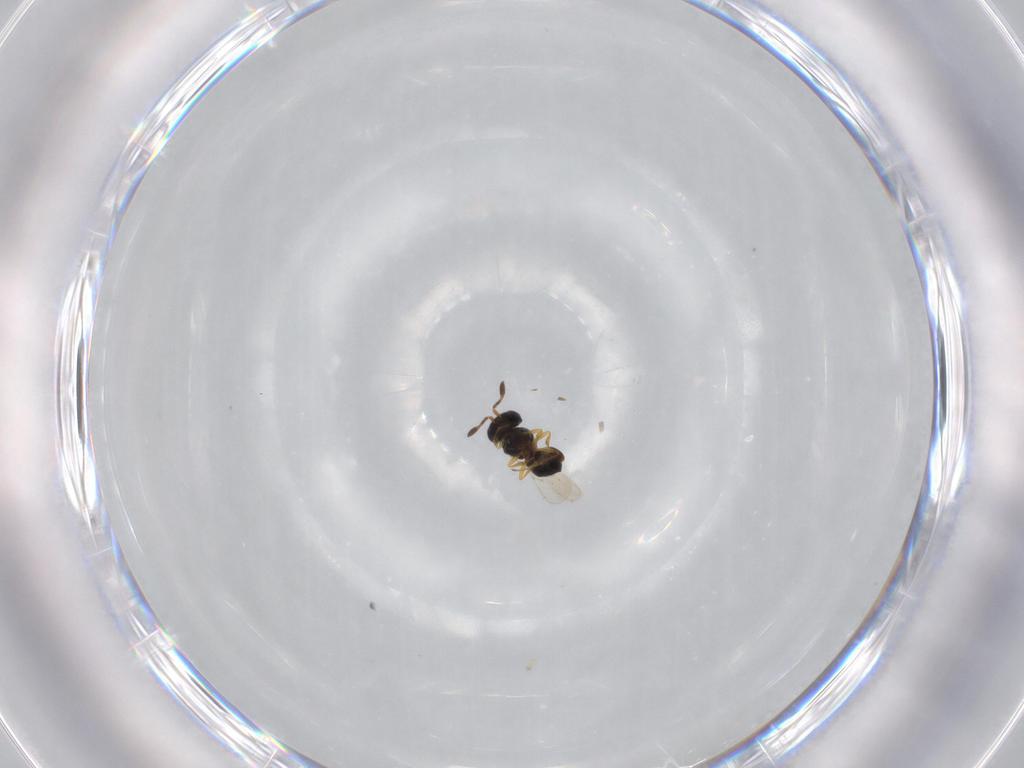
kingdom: Animalia
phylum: Arthropoda
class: Insecta
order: Hymenoptera
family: Scelionidae
